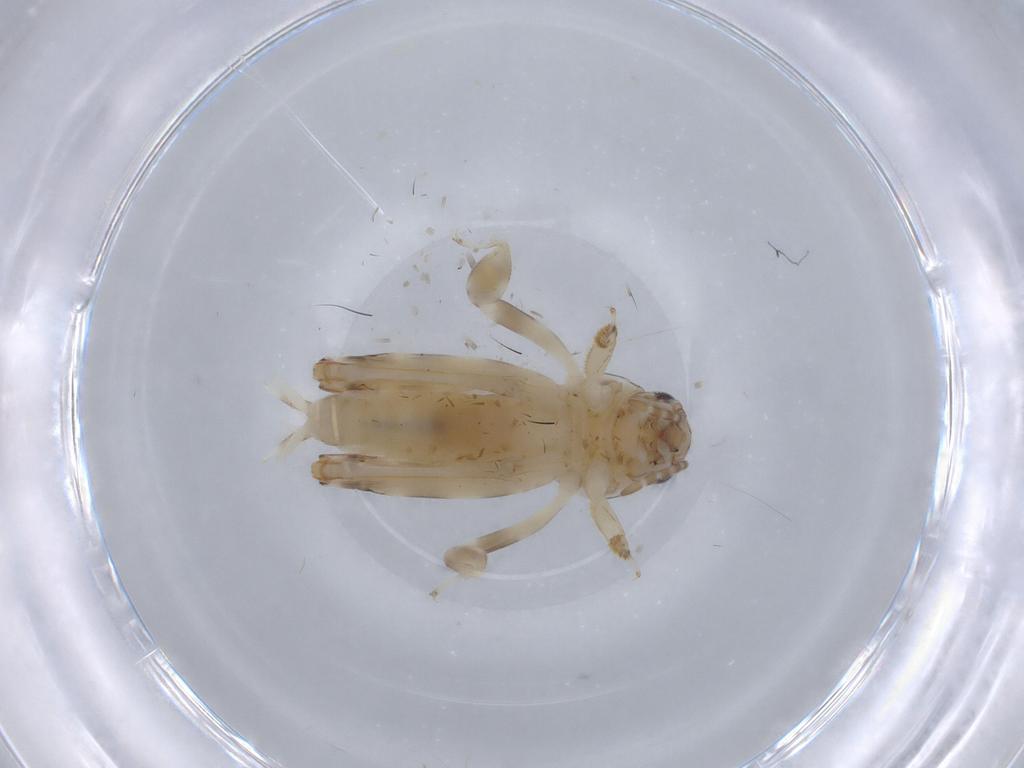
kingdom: Animalia
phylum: Arthropoda
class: Insecta
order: Orthoptera
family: Tridactylidae
